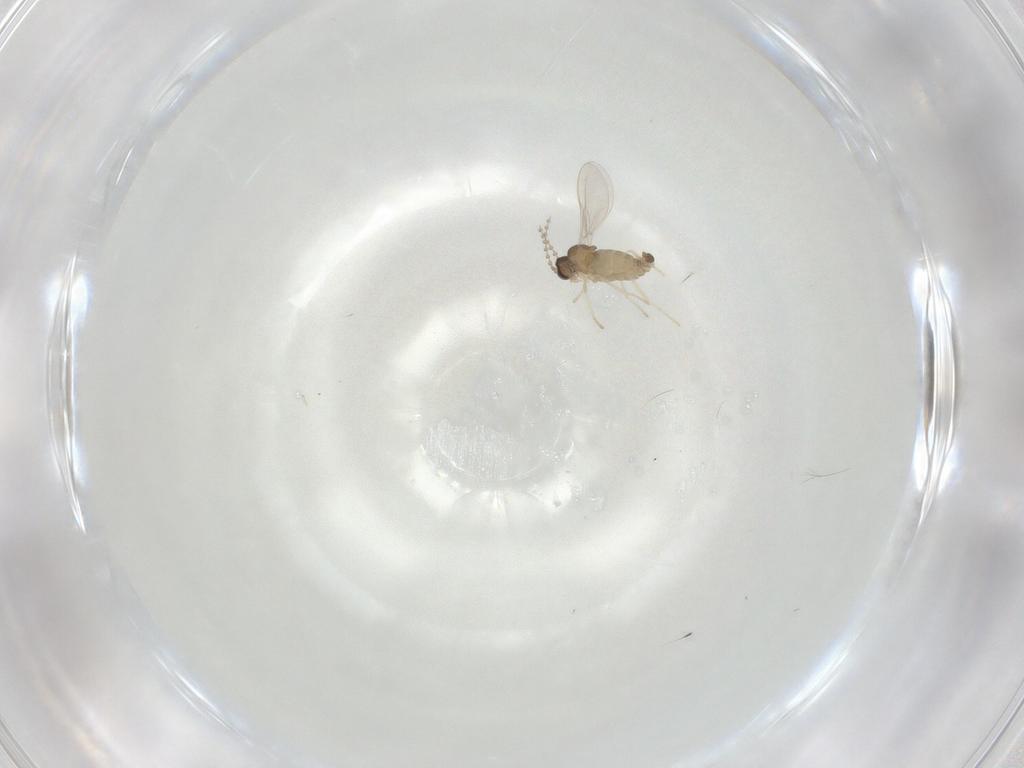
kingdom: Animalia
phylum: Arthropoda
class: Insecta
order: Diptera
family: Cecidomyiidae
